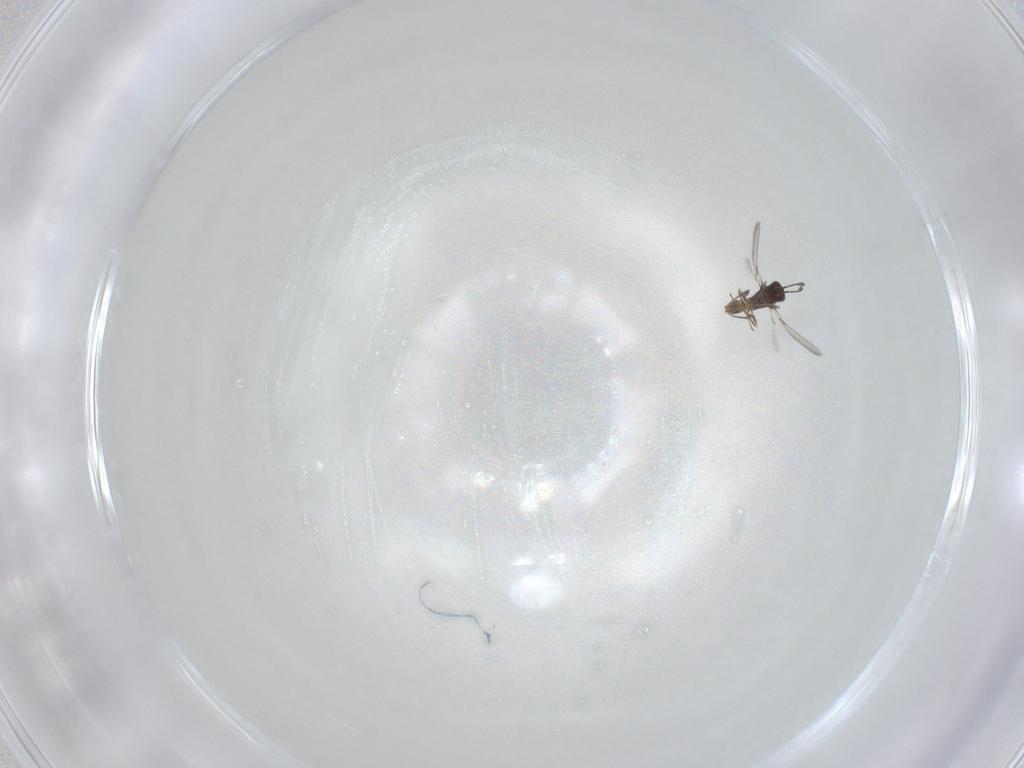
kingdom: Animalia
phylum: Arthropoda
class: Insecta
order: Hymenoptera
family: Mymaridae
